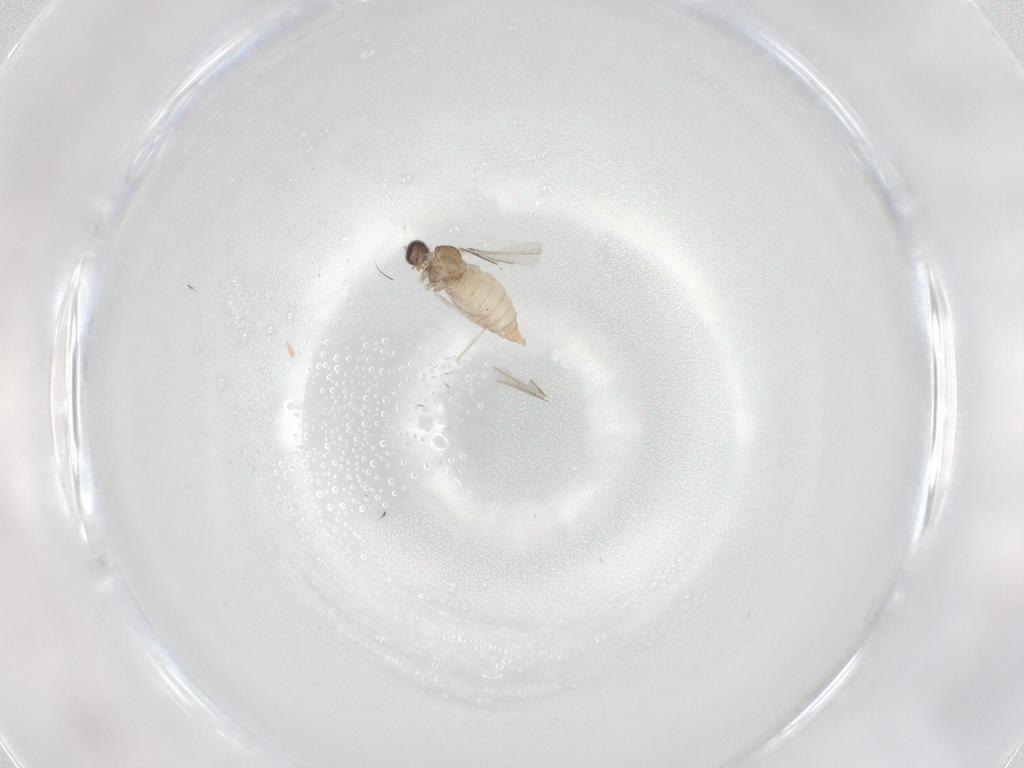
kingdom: Animalia
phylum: Arthropoda
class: Insecta
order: Diptera
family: Cecidomyiidae
